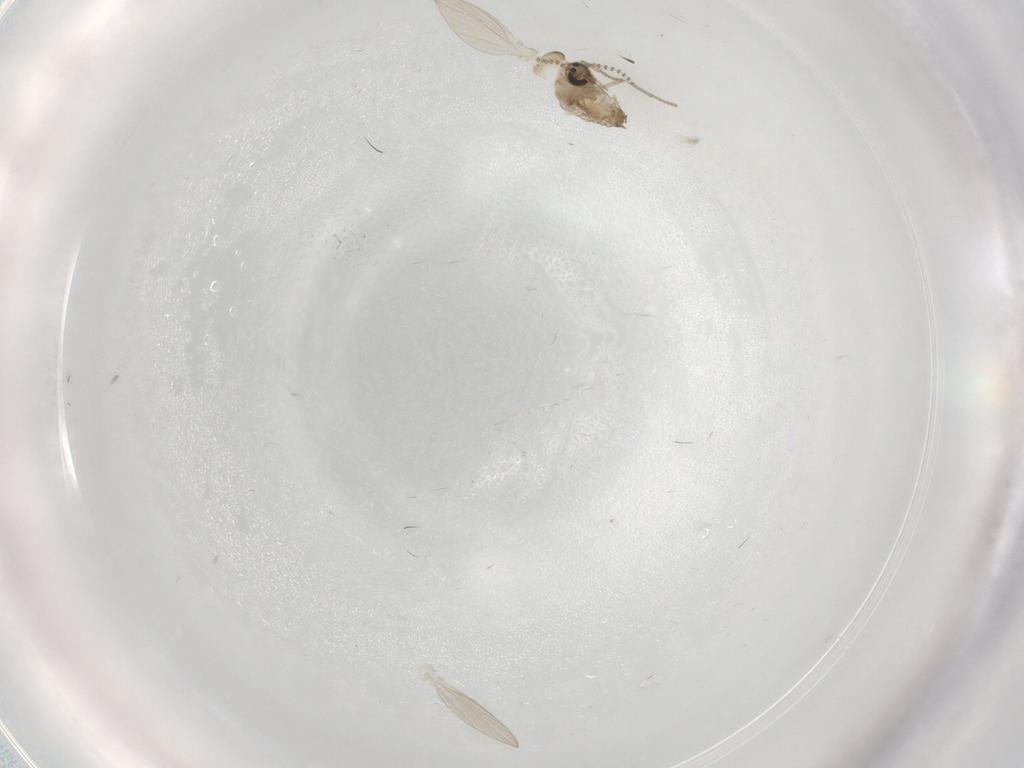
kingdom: Animalia
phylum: Arthropoda
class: Insecta
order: Diptera
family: Psychodidae
